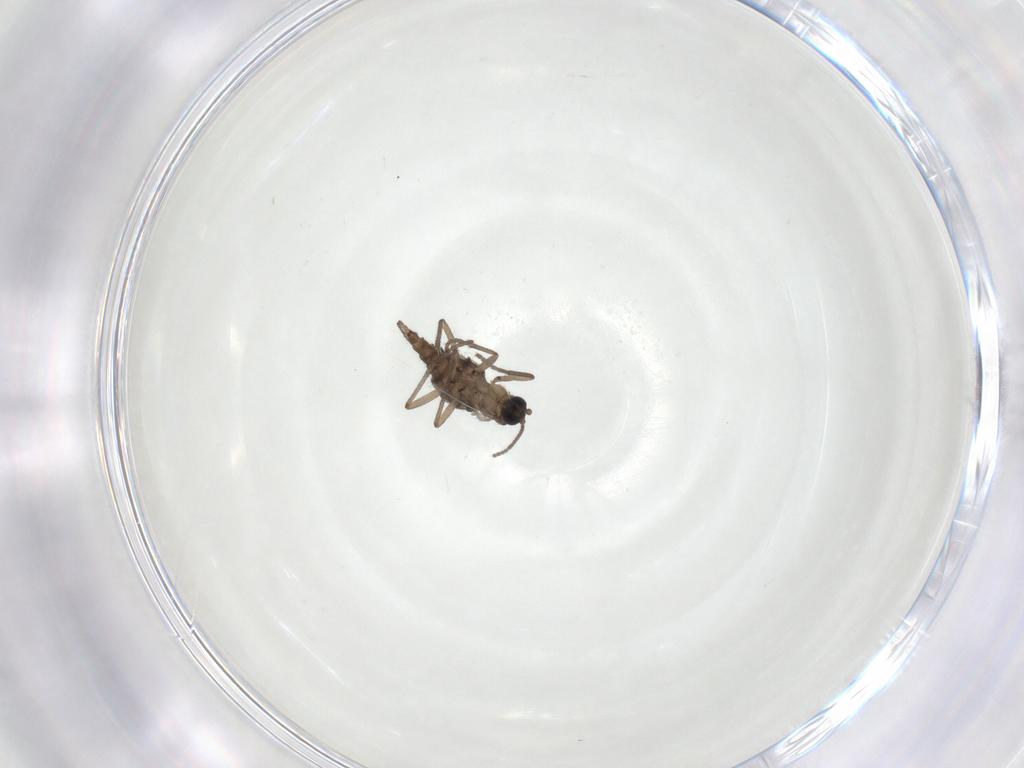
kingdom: Animalia
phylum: Arthropoda
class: Insecta
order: Diptera
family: Sciaridae
